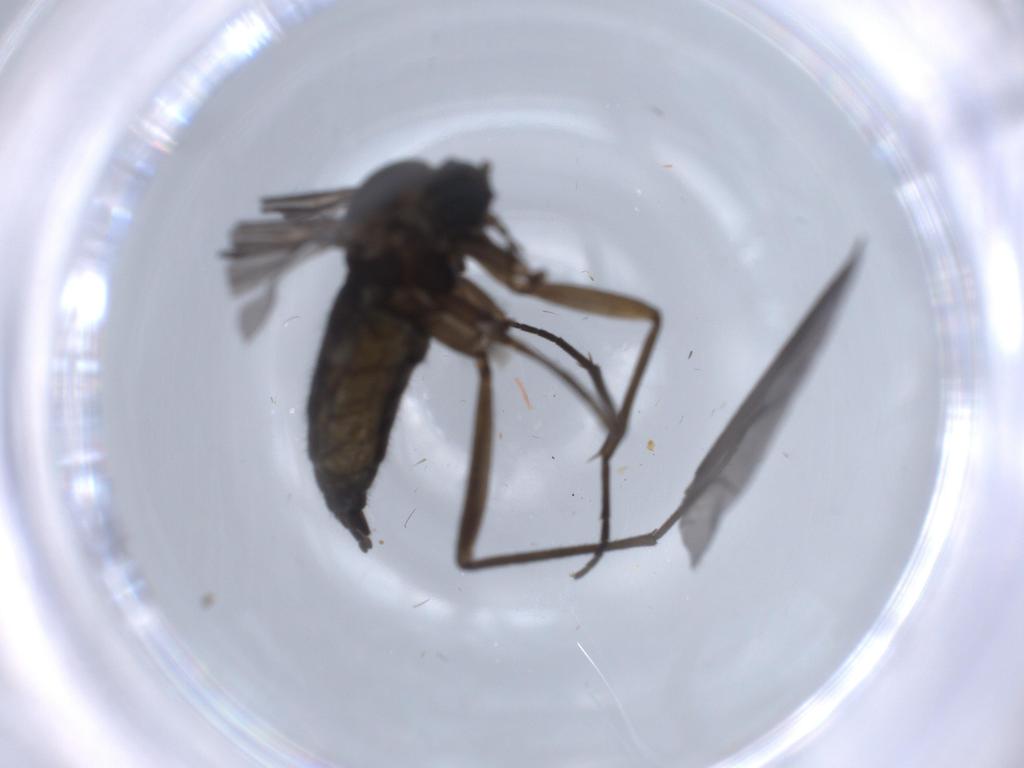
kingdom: Animalia
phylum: Arthropoda
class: Insecta
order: Diptera
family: Sciaridae
